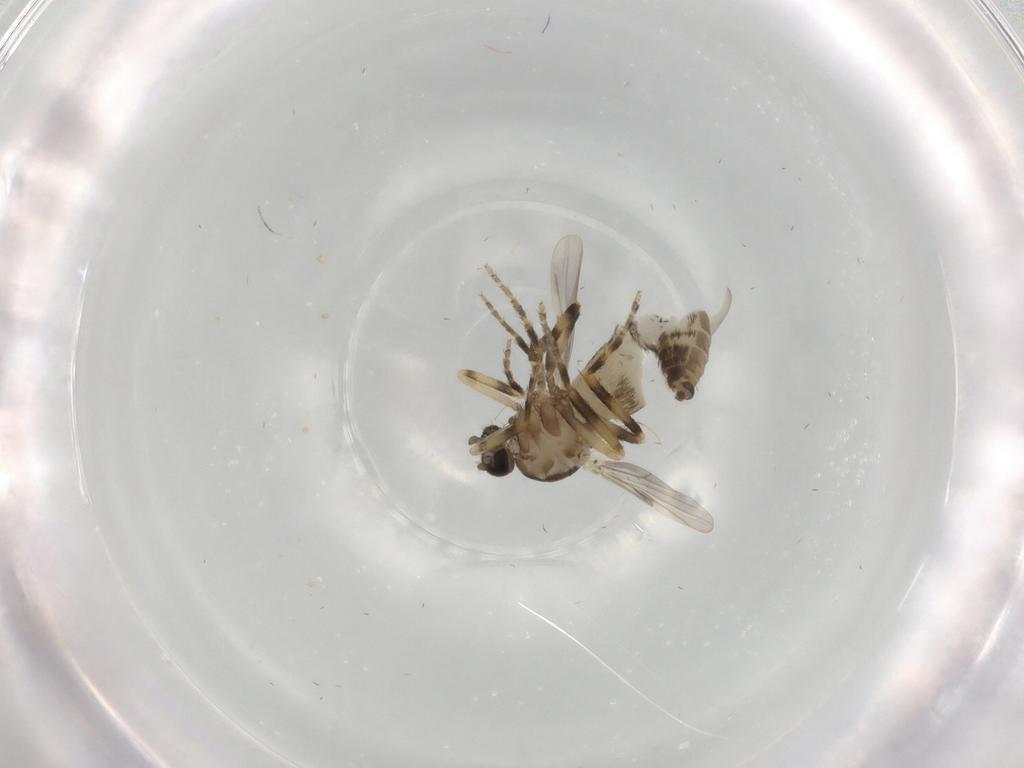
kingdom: Animalia
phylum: Arthropoda
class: Insecta
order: Diptera
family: Ceratopogonidae
